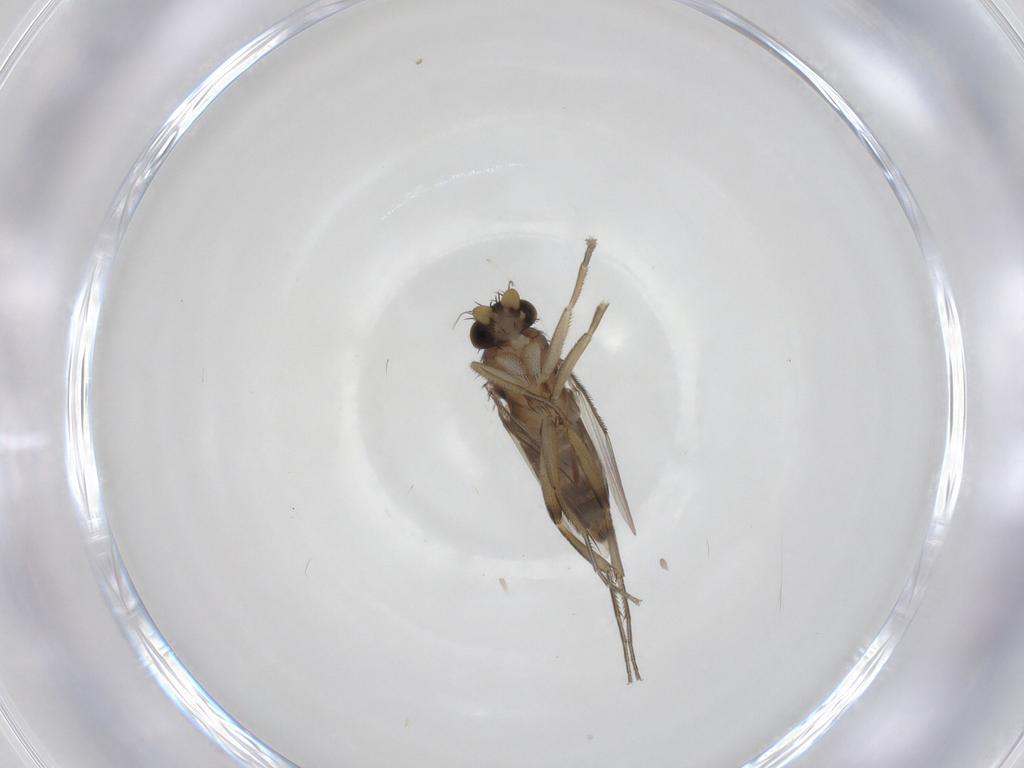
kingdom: Animalia
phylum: Arthropoda
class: Insecta
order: Diptera
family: Phoridae
